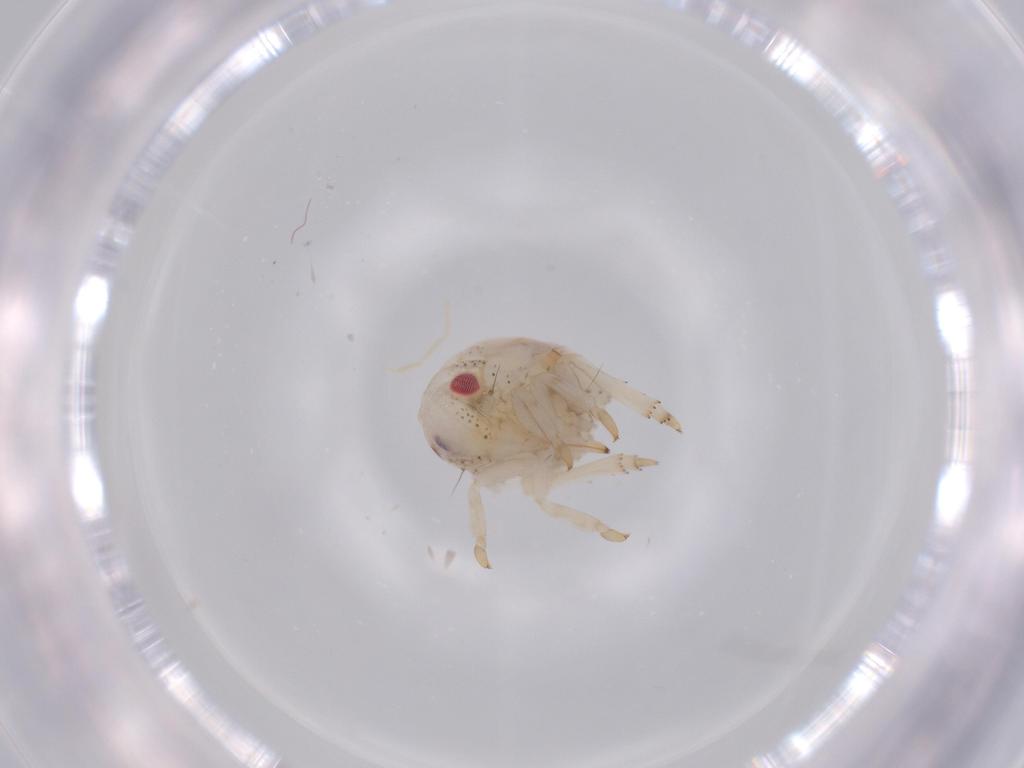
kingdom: Animalia
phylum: Arthropoda
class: Insecta
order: Hemiptera
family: Acanaloniidae
